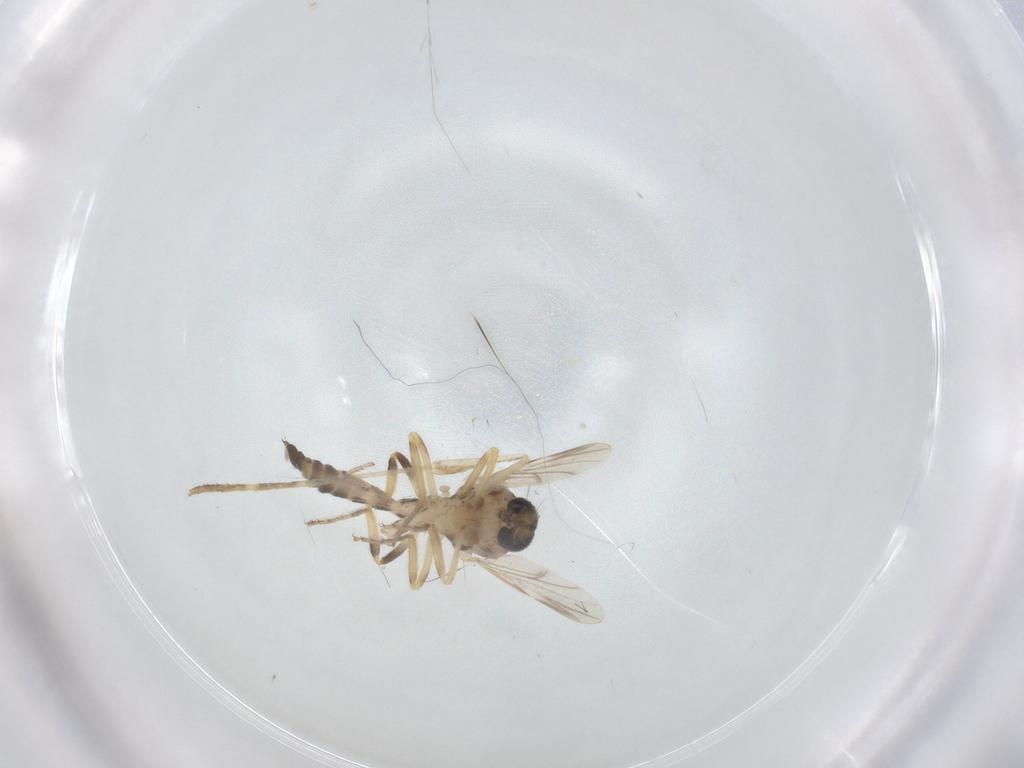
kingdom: Animalia
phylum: Arthropoda
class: Insecta
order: Diptera
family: Ceratopogonidae
